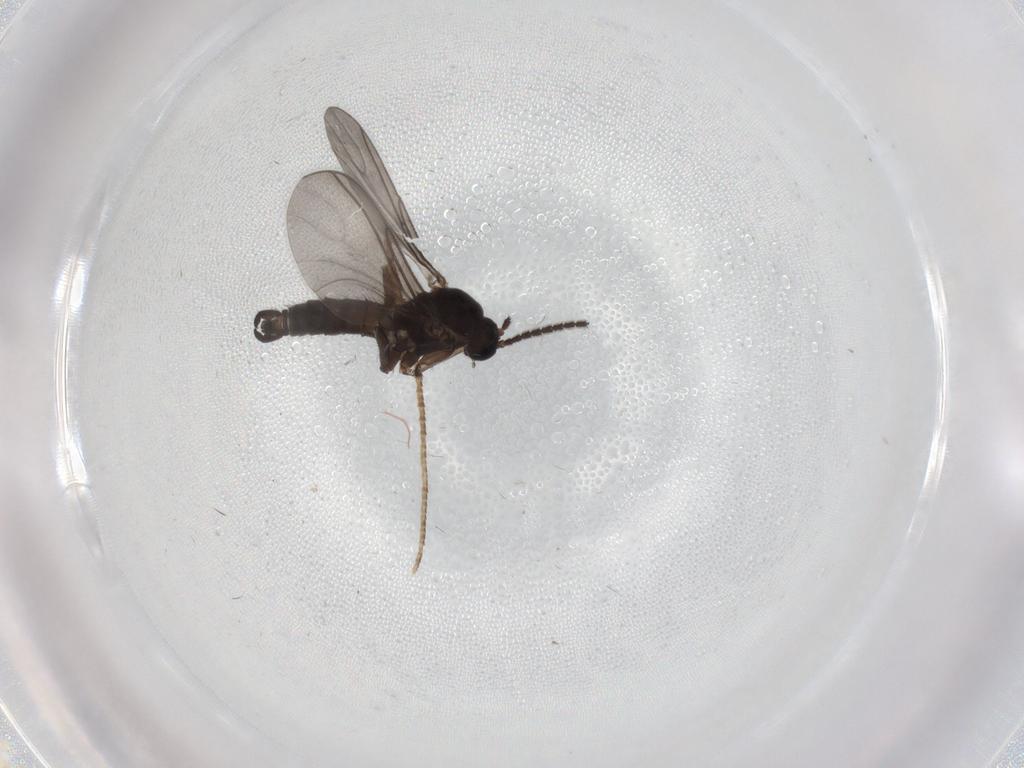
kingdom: Animalia
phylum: Arthropoda
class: Insecta
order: Diptera
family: Sciaridae
